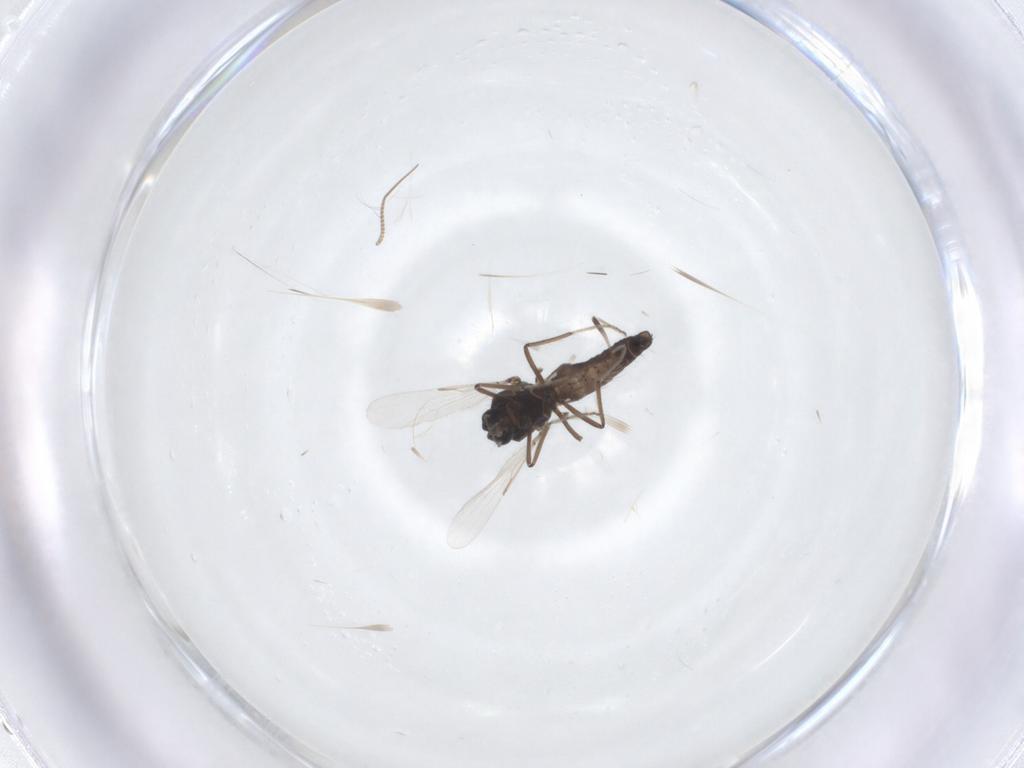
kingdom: Animalia
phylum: Arthropoda
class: Insecta
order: Diptera
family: Ceratopogonidae
